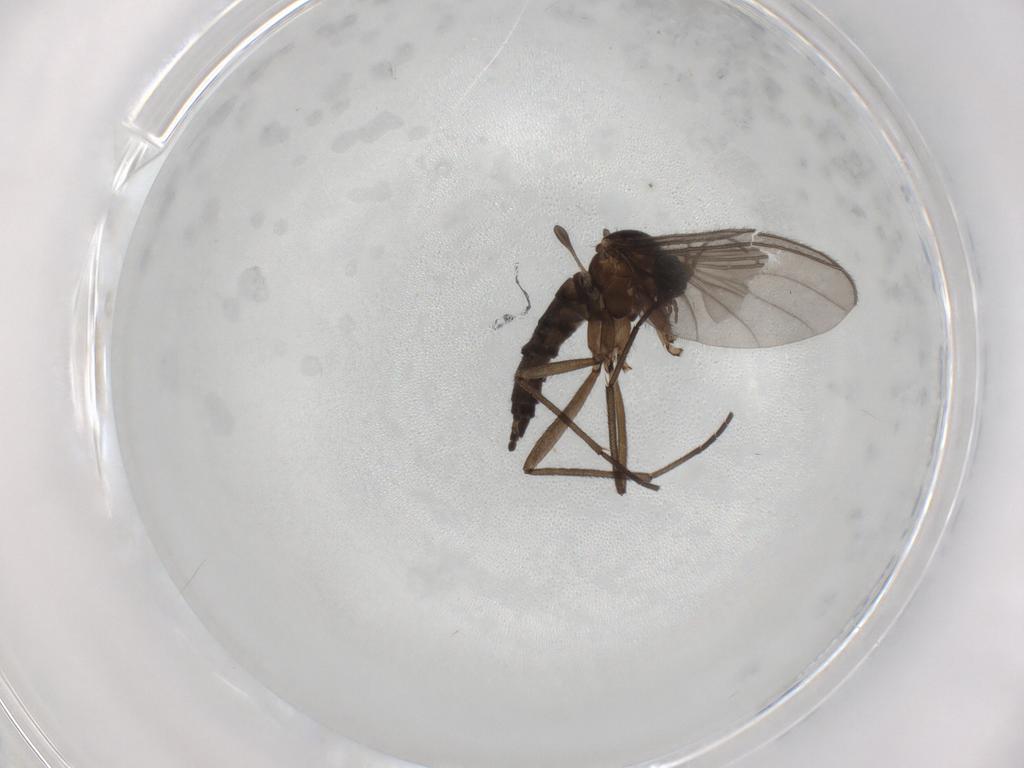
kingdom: Animalia
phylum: Arthropoda
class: Insecta
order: Diptera
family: Sciaridae
